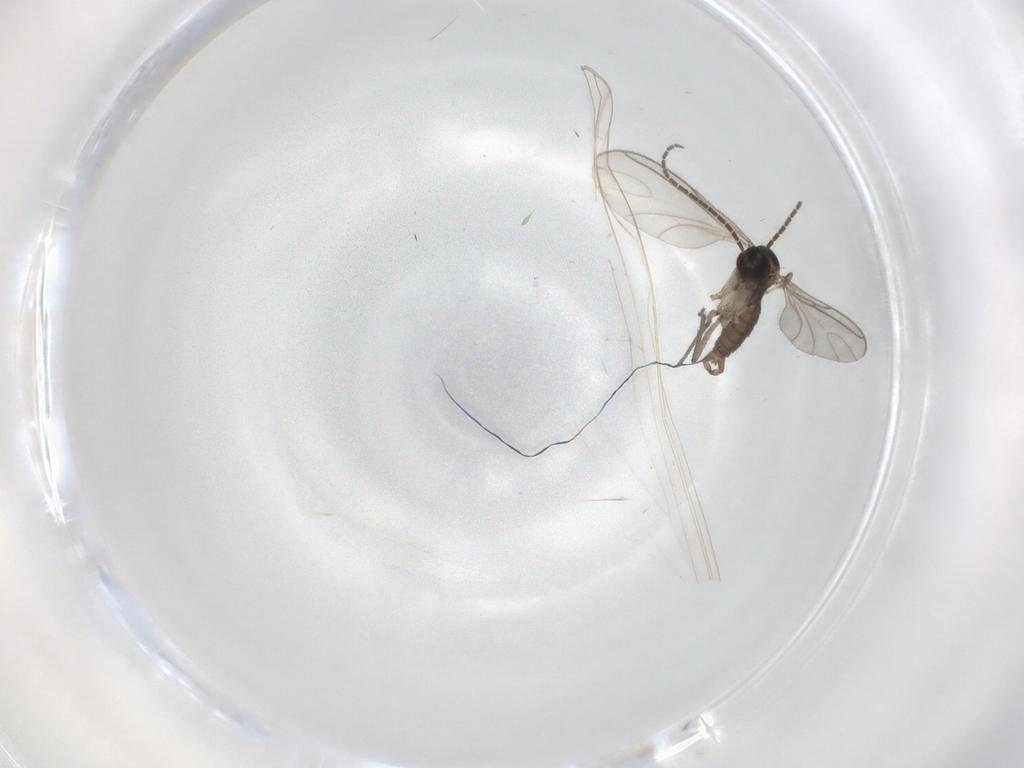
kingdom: Animalia
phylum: Arthropoda
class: Insecta
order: Diptera
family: Sciaridae
